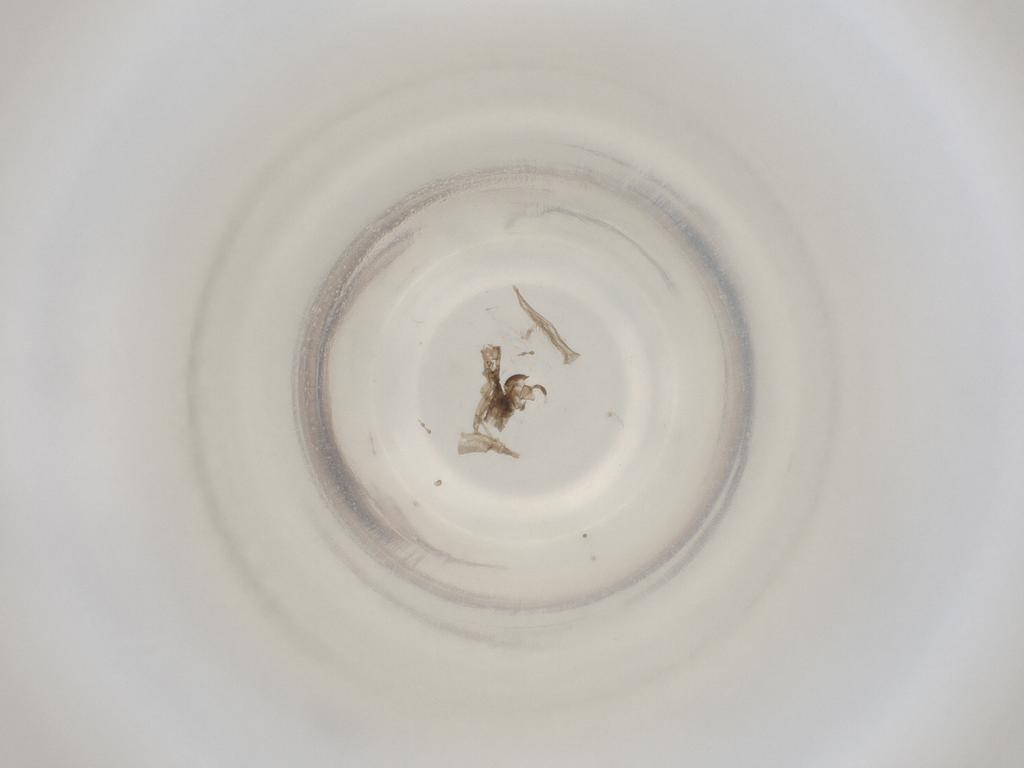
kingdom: Animalia
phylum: Arthropoda
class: Insecta
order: Diptera
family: Cecidomyiidae
